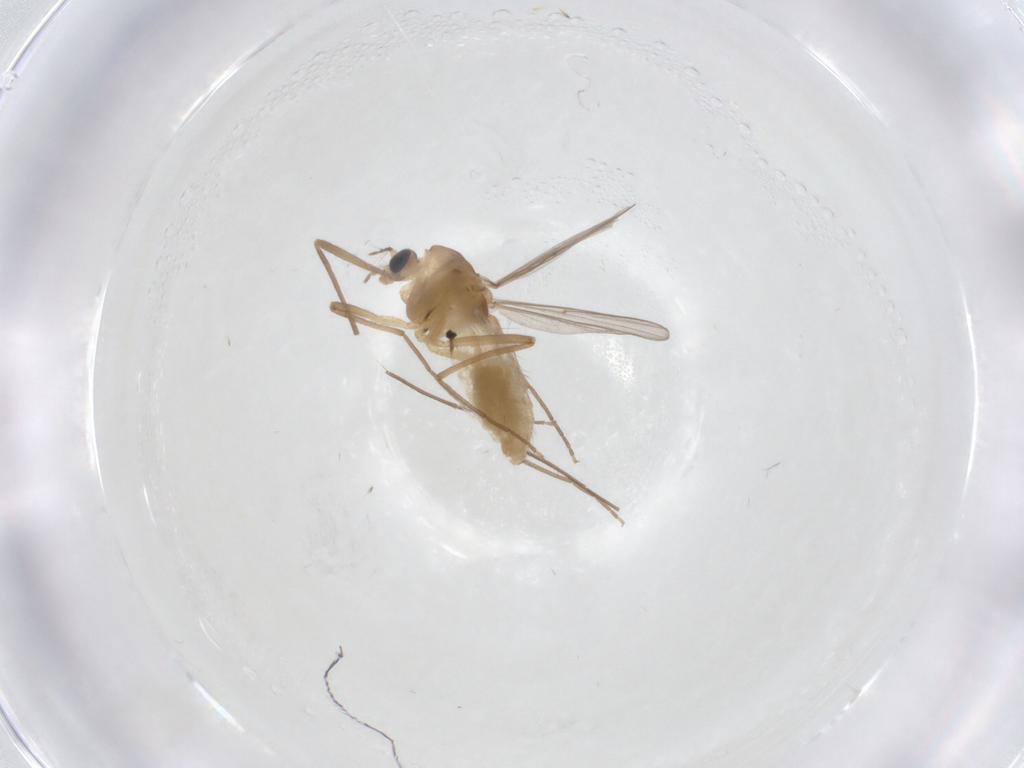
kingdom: Animalia
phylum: Arthropoda
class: Insecta
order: Diptera
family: Chironomidae
